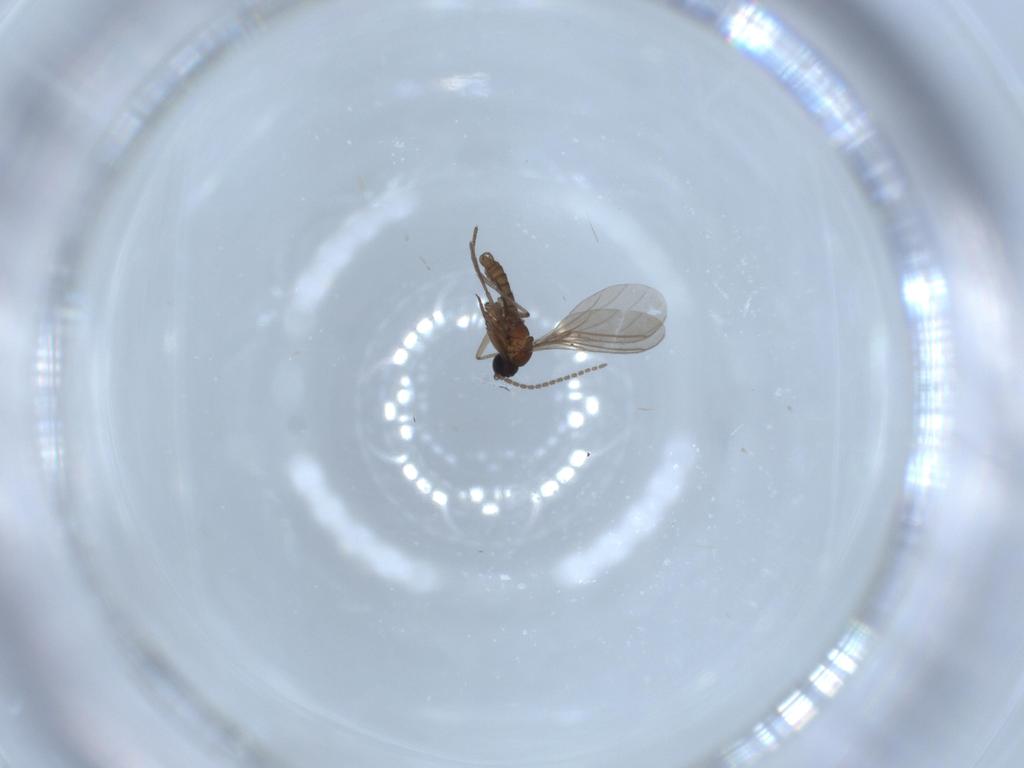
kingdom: Animalia
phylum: Arthropoda
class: Insecta
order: Diptera
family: Sciaridae
